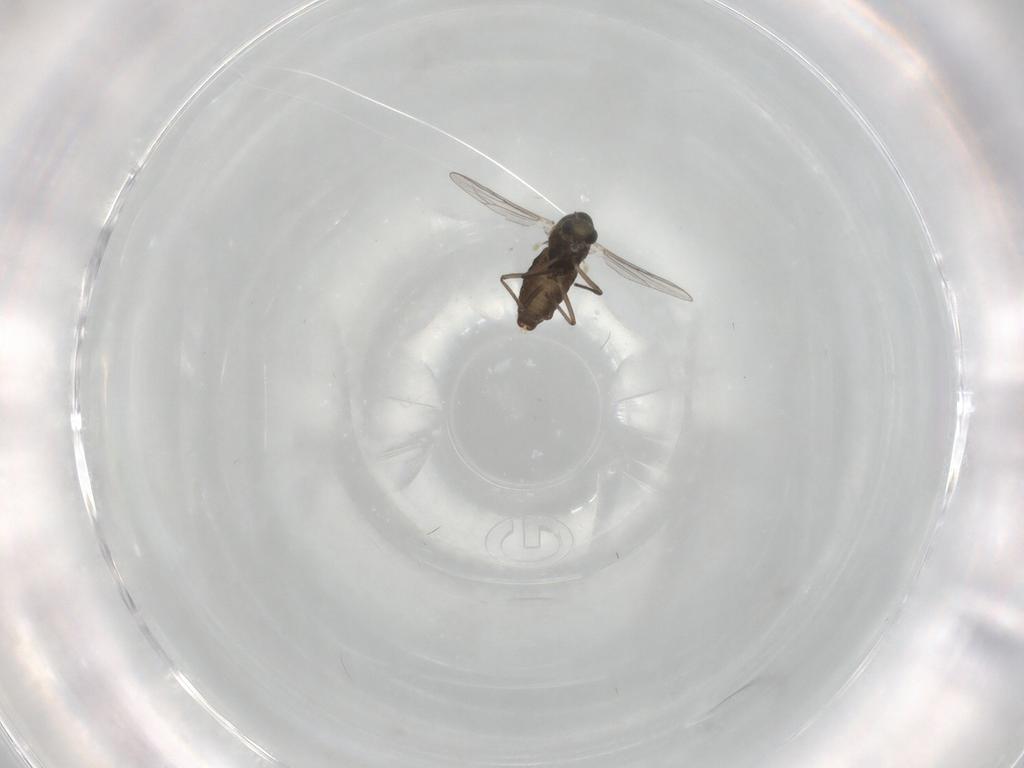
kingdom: Animalia
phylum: Arthropoda
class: Insecta
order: Diptera
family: Chironomidae
